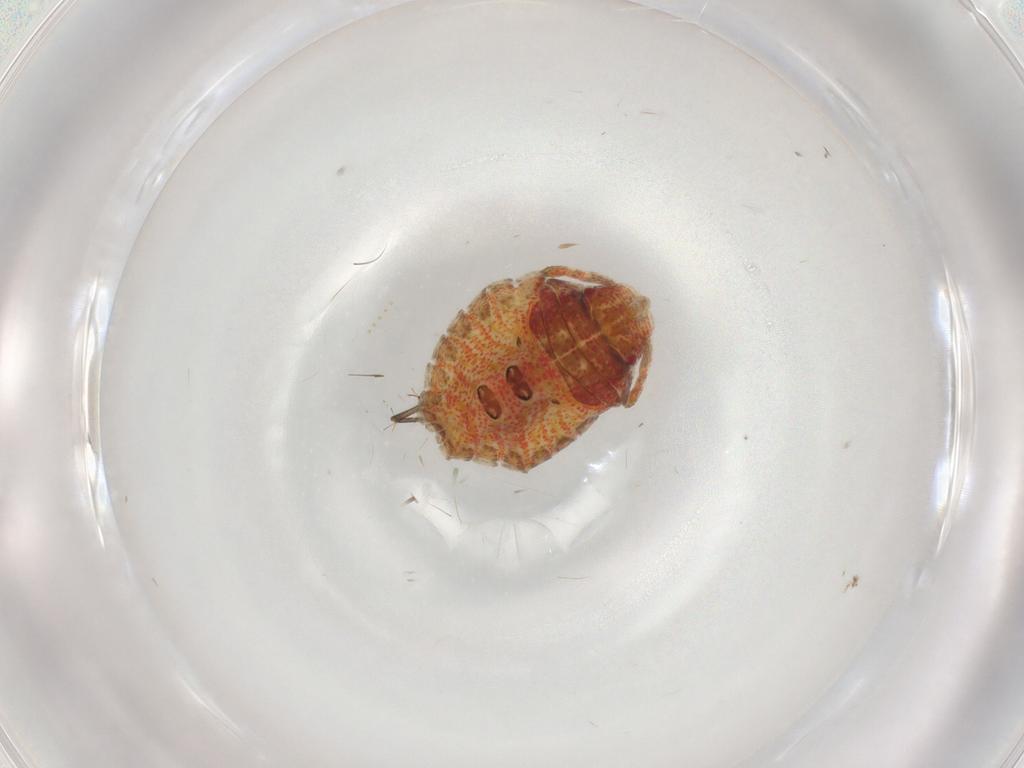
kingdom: Animalia
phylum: Arthropoda
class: Insecta
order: Hemiptera
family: Pentatomidae
